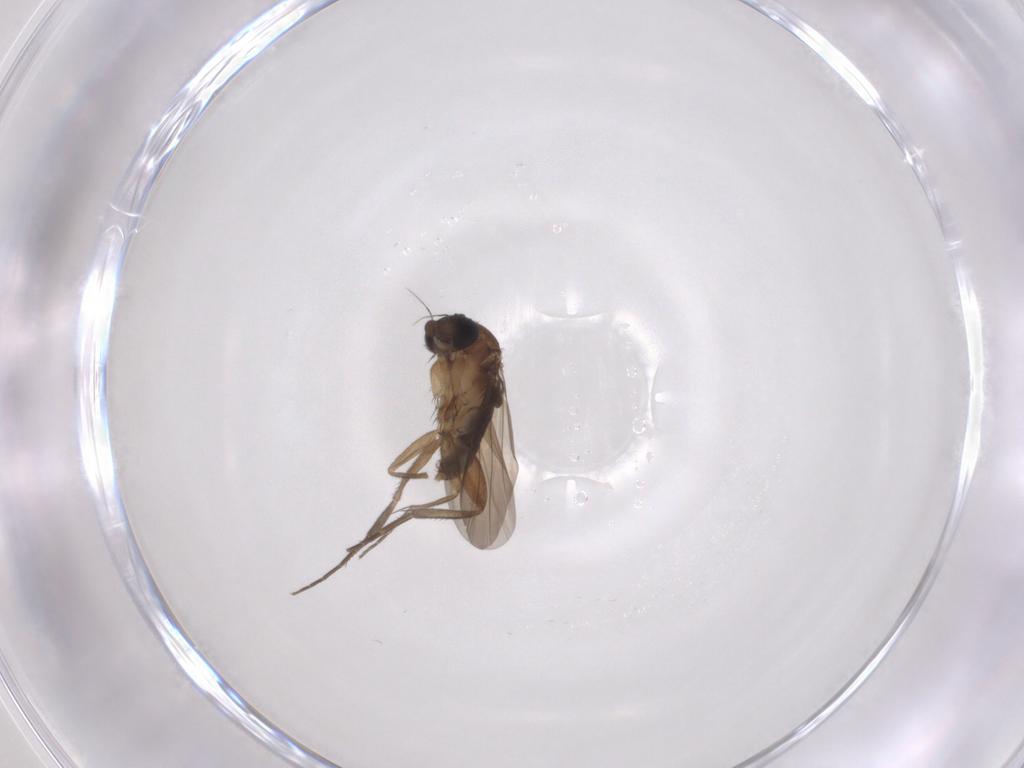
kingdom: Animalia
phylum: Arthropoda
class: Insecta
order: Diptera
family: Phoridae
